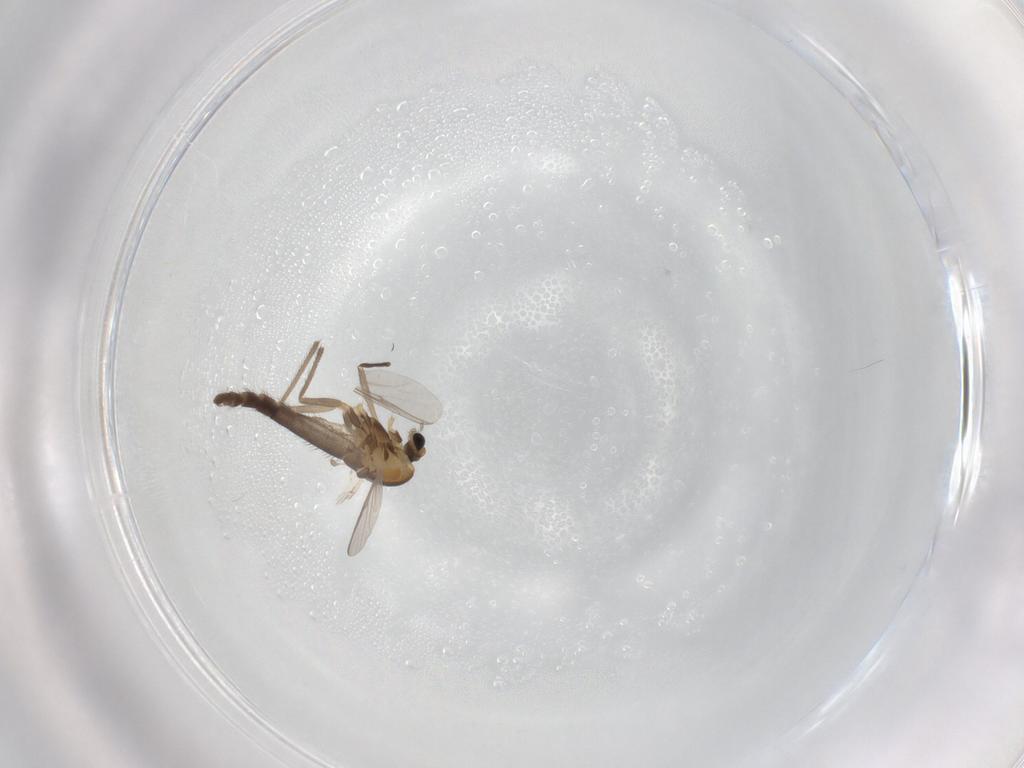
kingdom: Animalia
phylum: Arthropoda
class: Insecta
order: Diptera
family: Chironomidae
